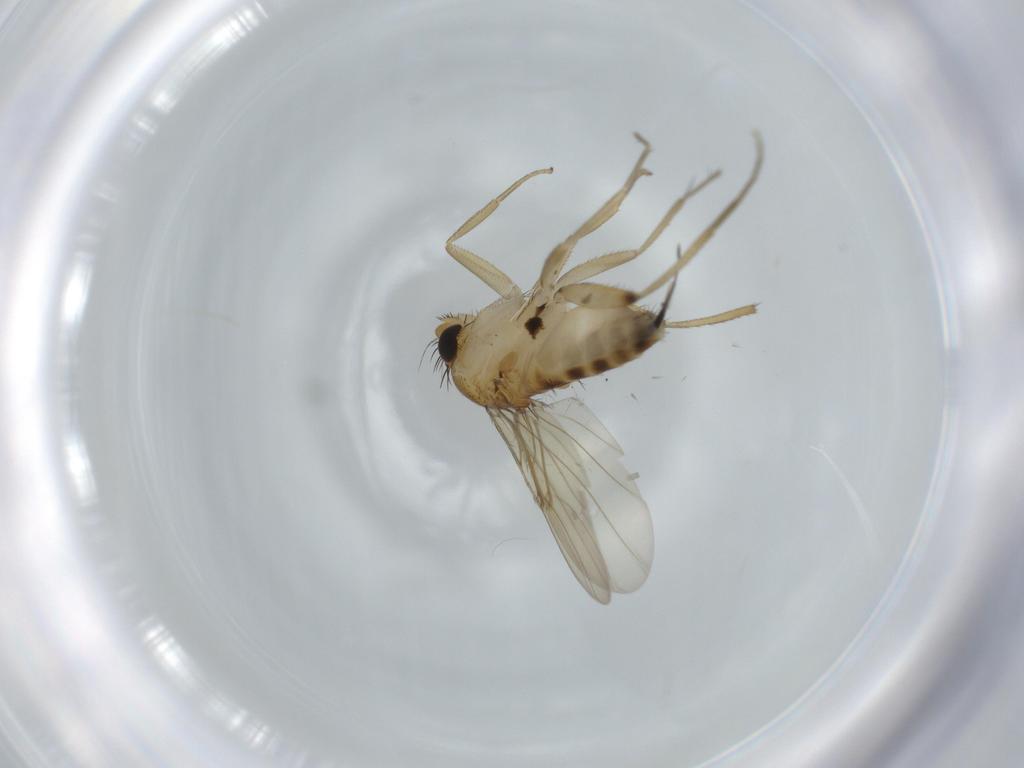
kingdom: Animalia
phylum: Arthropoda
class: Insecta
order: Diptera
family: Phoridae
